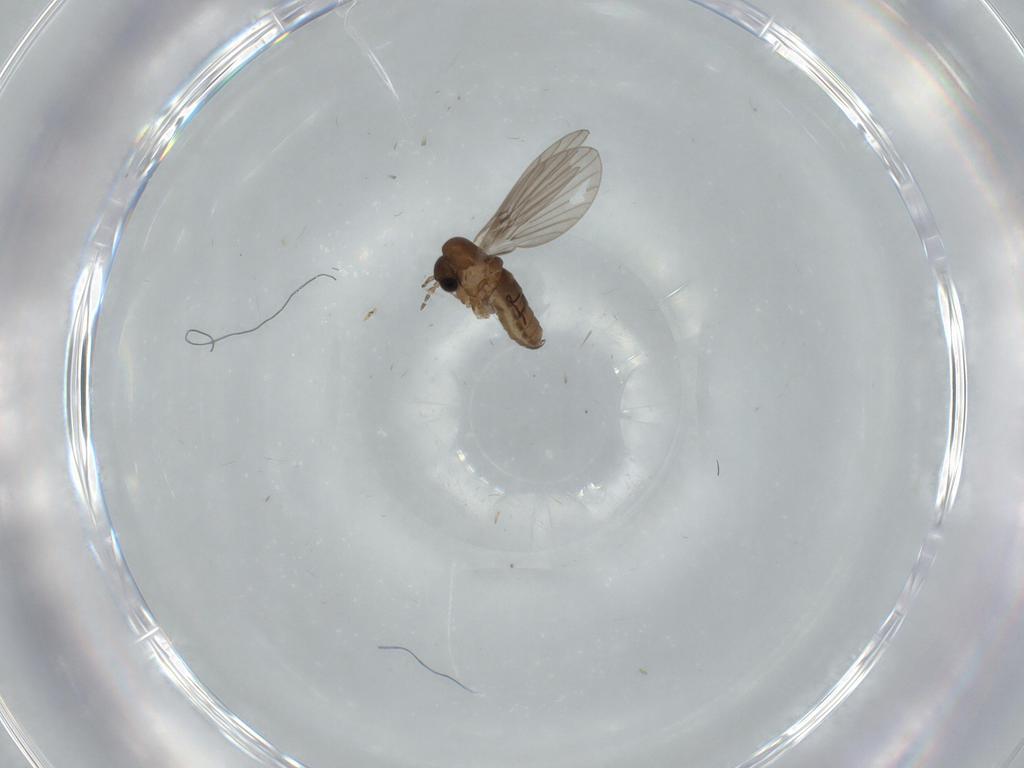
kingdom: Animalia
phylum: Arthropoda
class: Insecta
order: Diptera
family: Psychodidae
